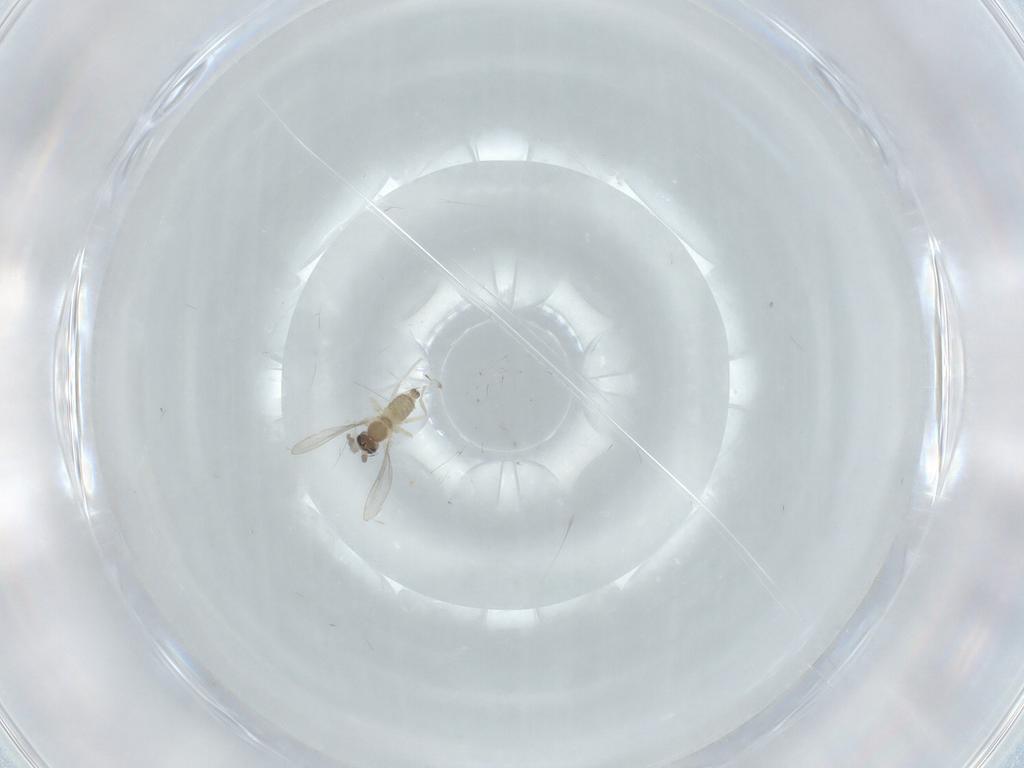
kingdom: Animalia
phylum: Arthropoda
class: Insecta
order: Diptera
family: Cecidomyiidae
